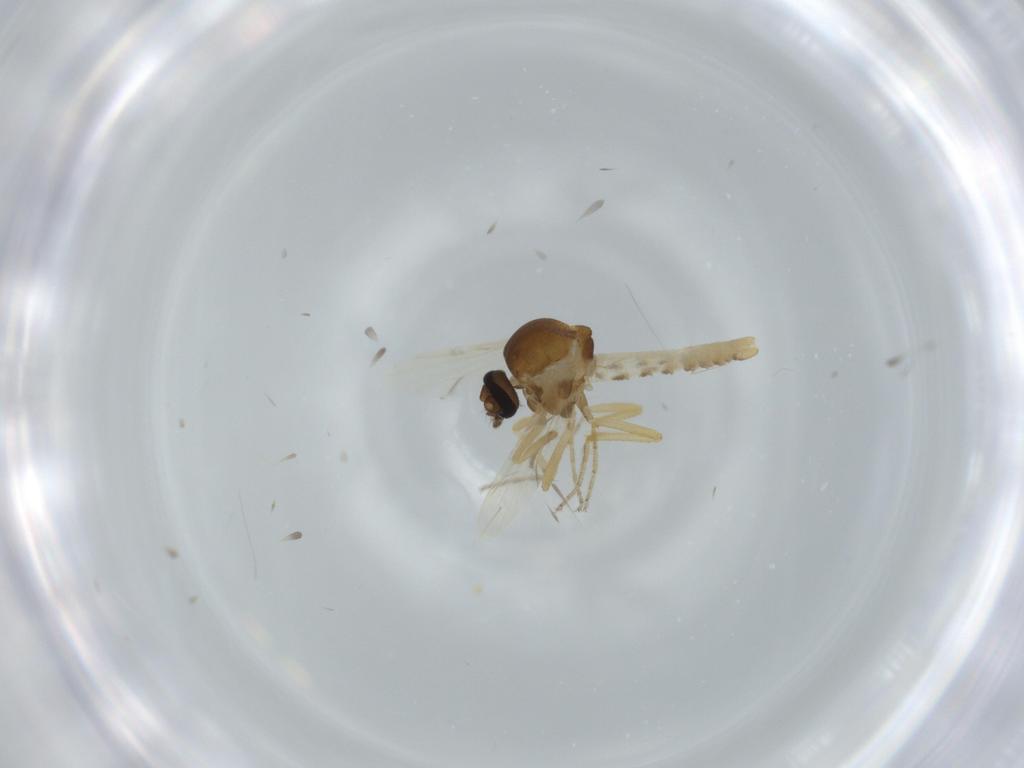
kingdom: Animalia
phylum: Arthropoda
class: Insecta
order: Diptera
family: Ceratopogonidae
